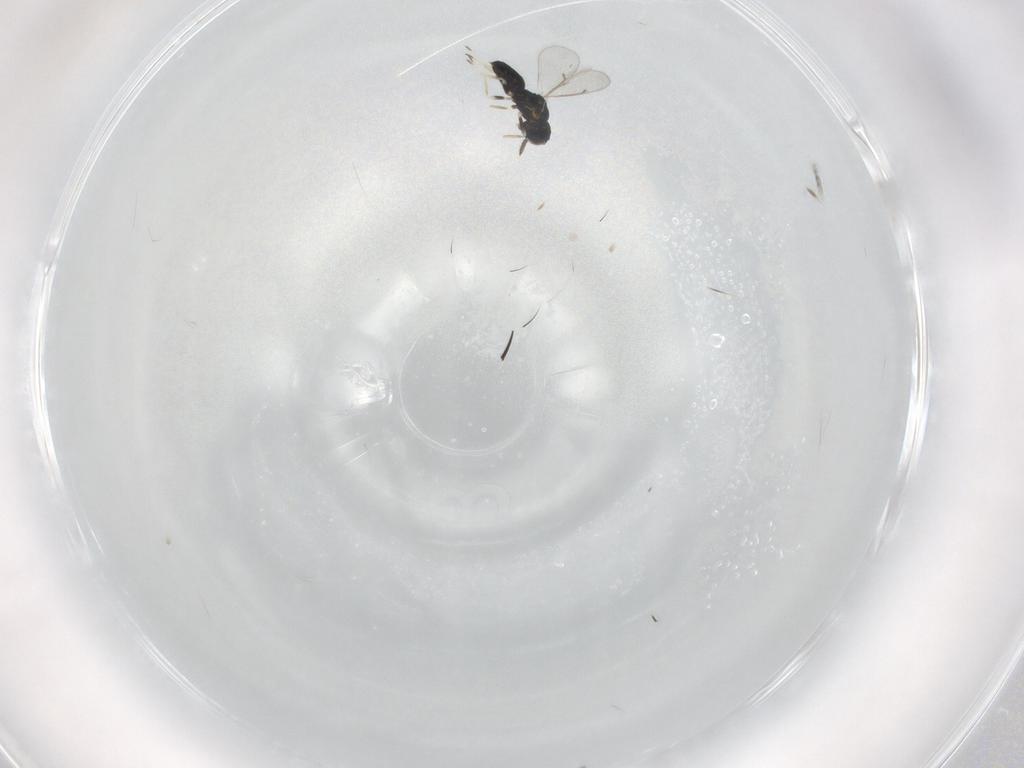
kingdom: Animalia
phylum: Arthropoda
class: Insecta
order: Hymenoptera
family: Eulophidae
